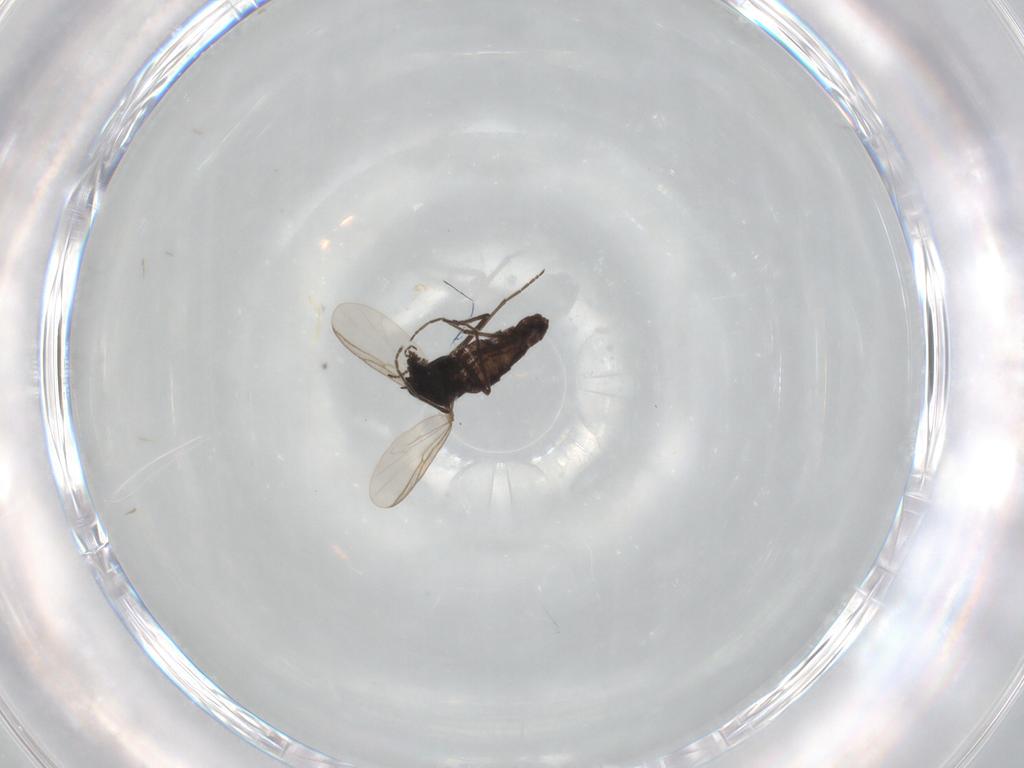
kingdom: Animalia
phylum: Arthropoda
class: Insecta
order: Diptera
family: Chironomidae
